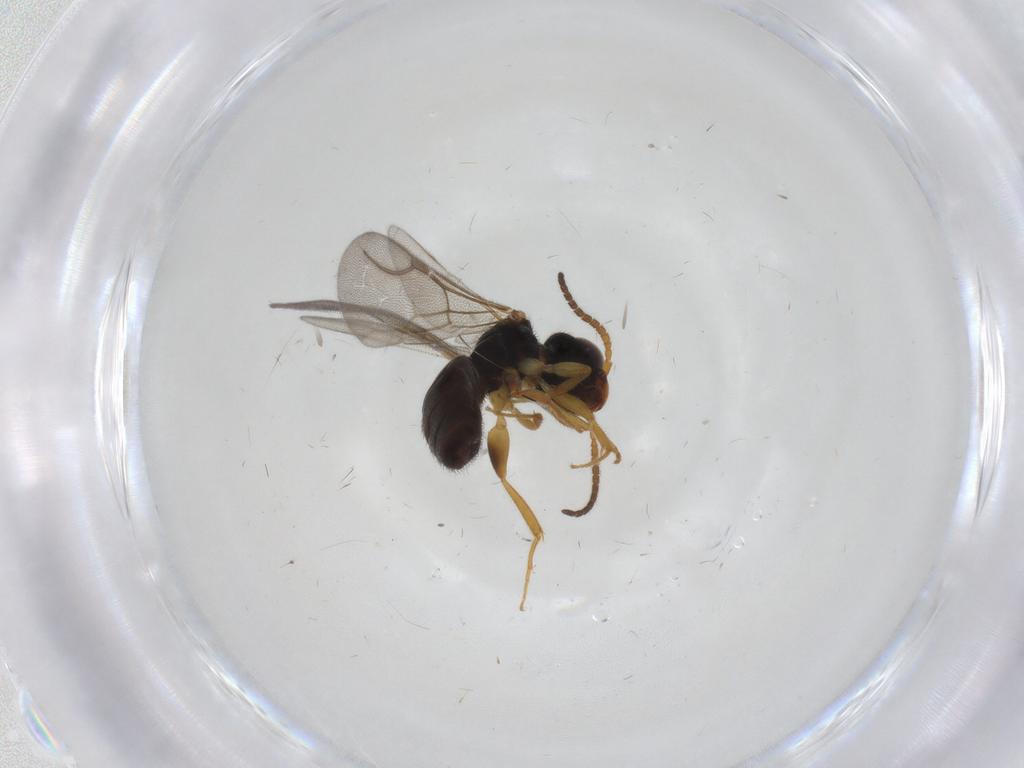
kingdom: Animalia
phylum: Arthropoda
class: Insecta
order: Hymenoptera
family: Bethylidae
